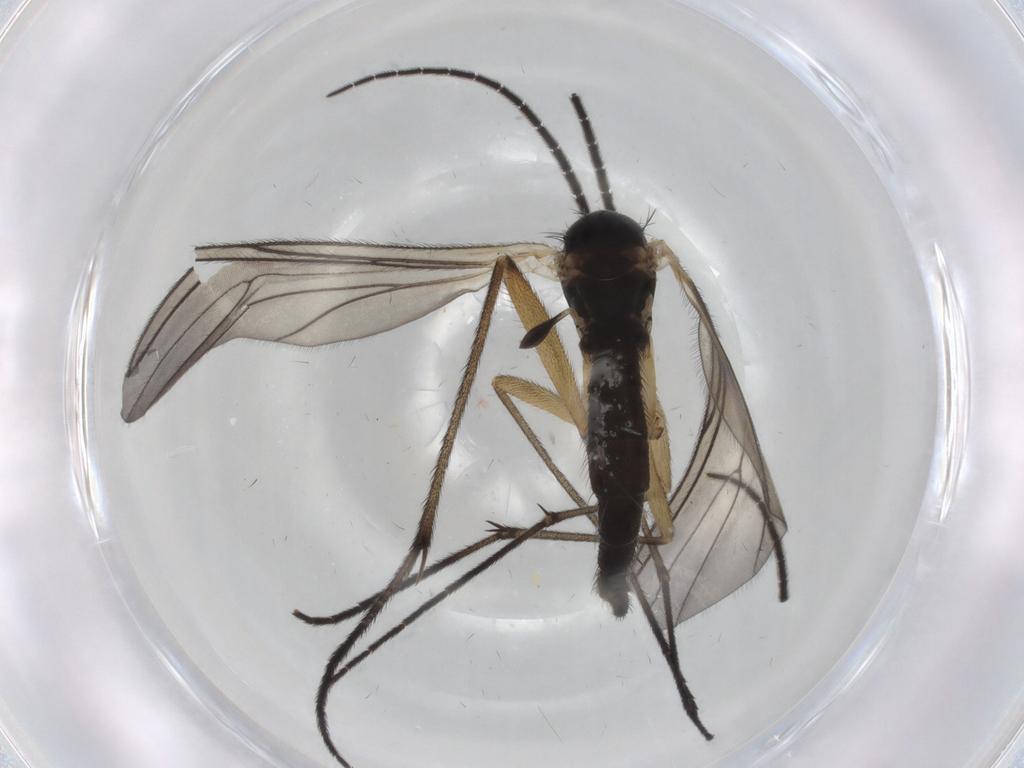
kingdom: Animalia
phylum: Arthropoda
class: Insecta
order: Diptera
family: Sciaridae
